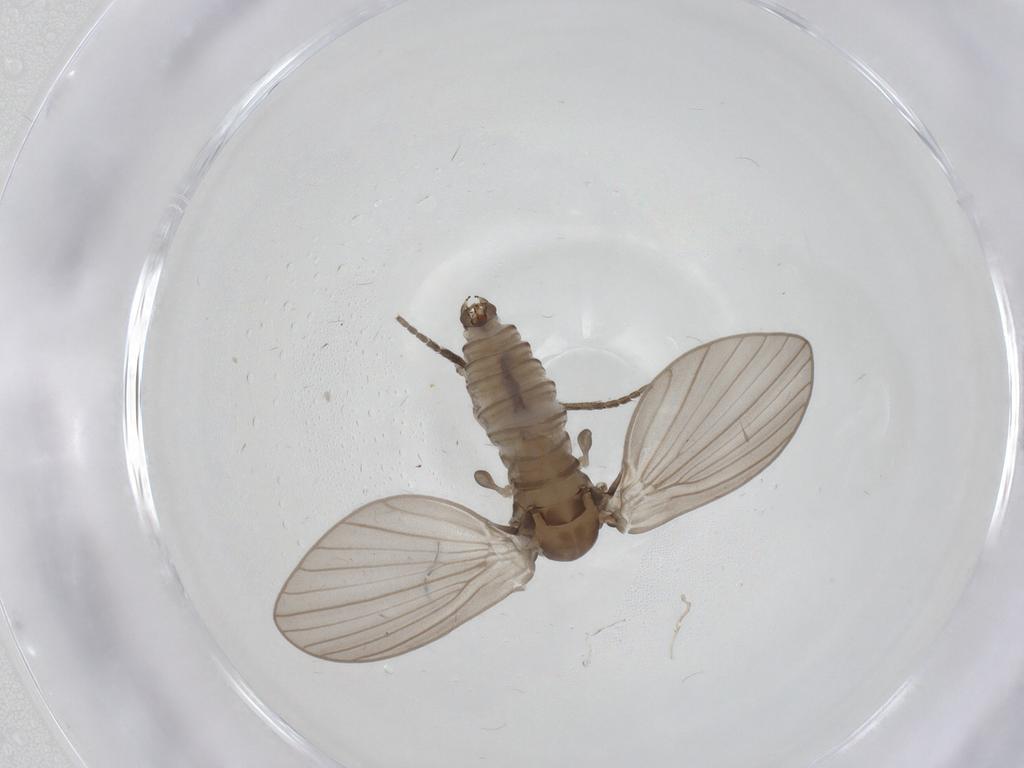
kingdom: Animalia
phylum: Arthropoda
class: Insecta
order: Diptera
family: Psychodidae
